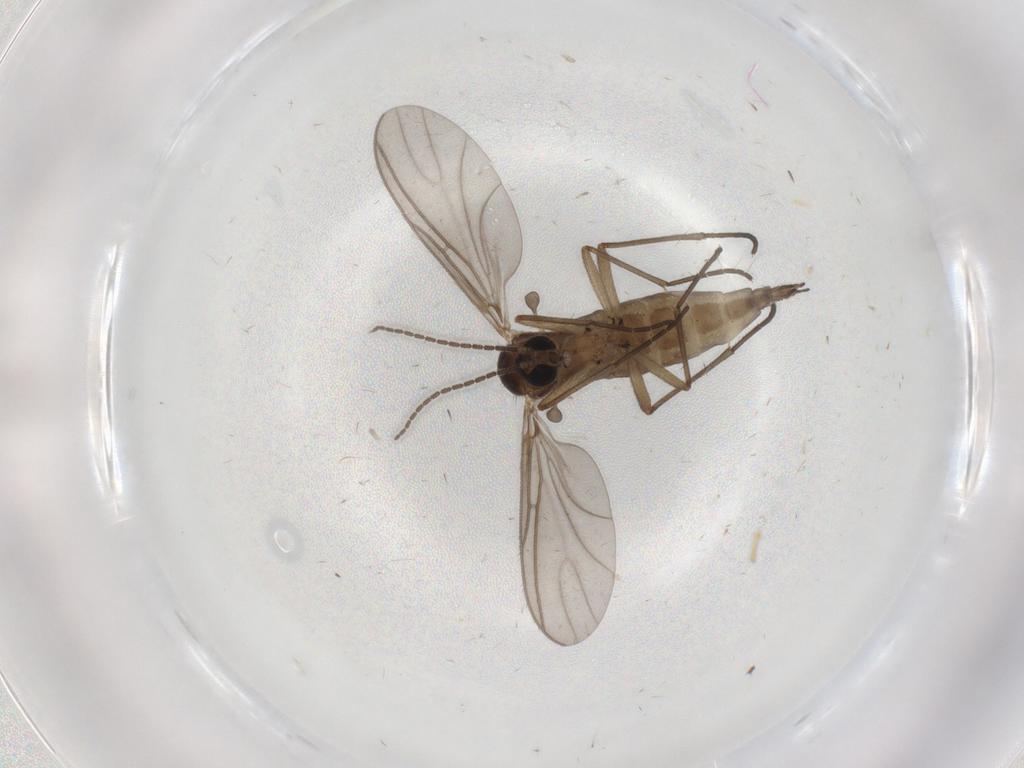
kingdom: Animalia
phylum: Arthropoda
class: Insecta
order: Diptera
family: Chironomidae
